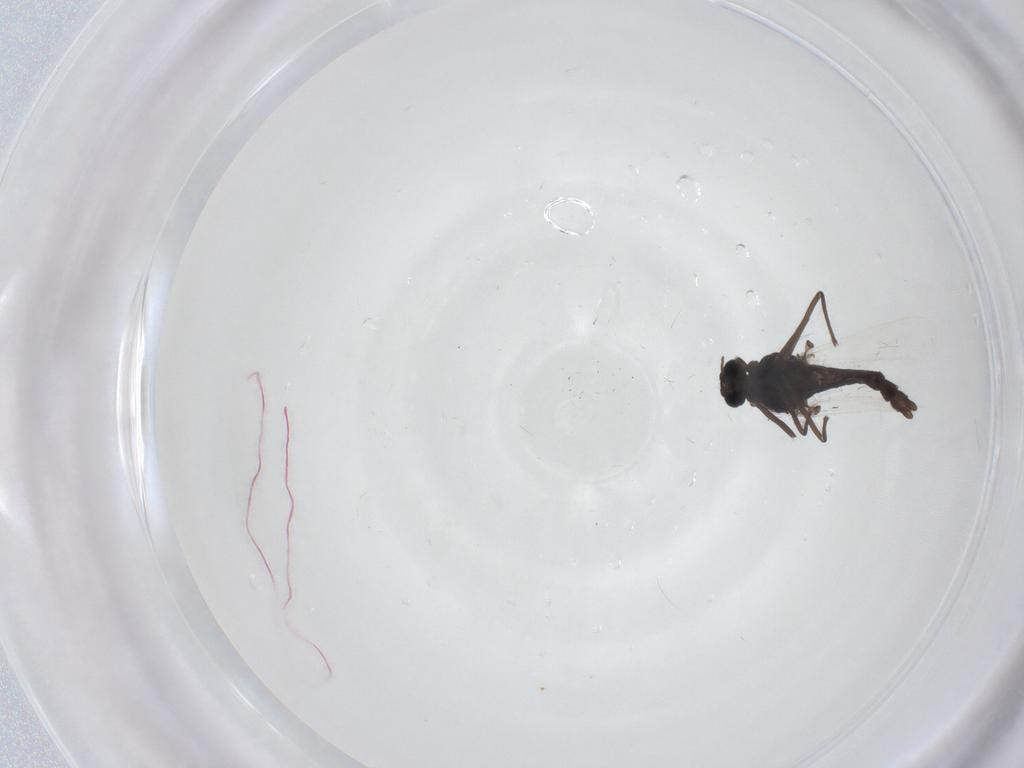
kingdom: Animalia
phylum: Arthropoda
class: Insecta
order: Diptera
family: Chironomidae
